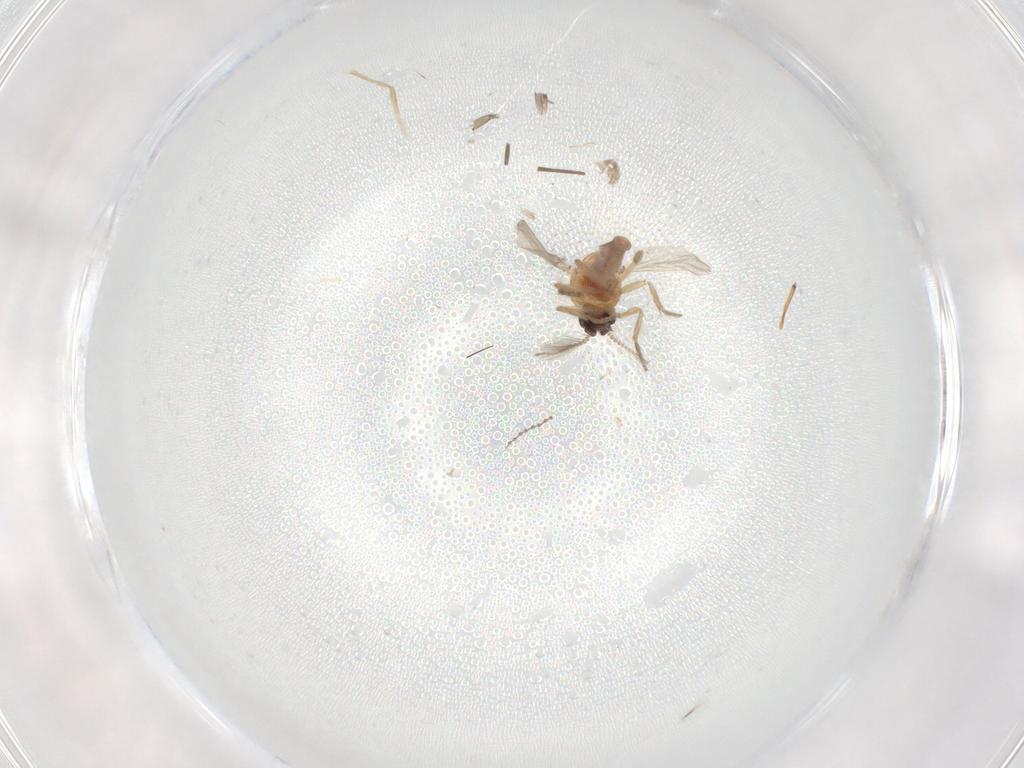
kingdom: Animalia
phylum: Arthropoda
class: Insecta
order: Diptera
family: Ceratopogonidae
